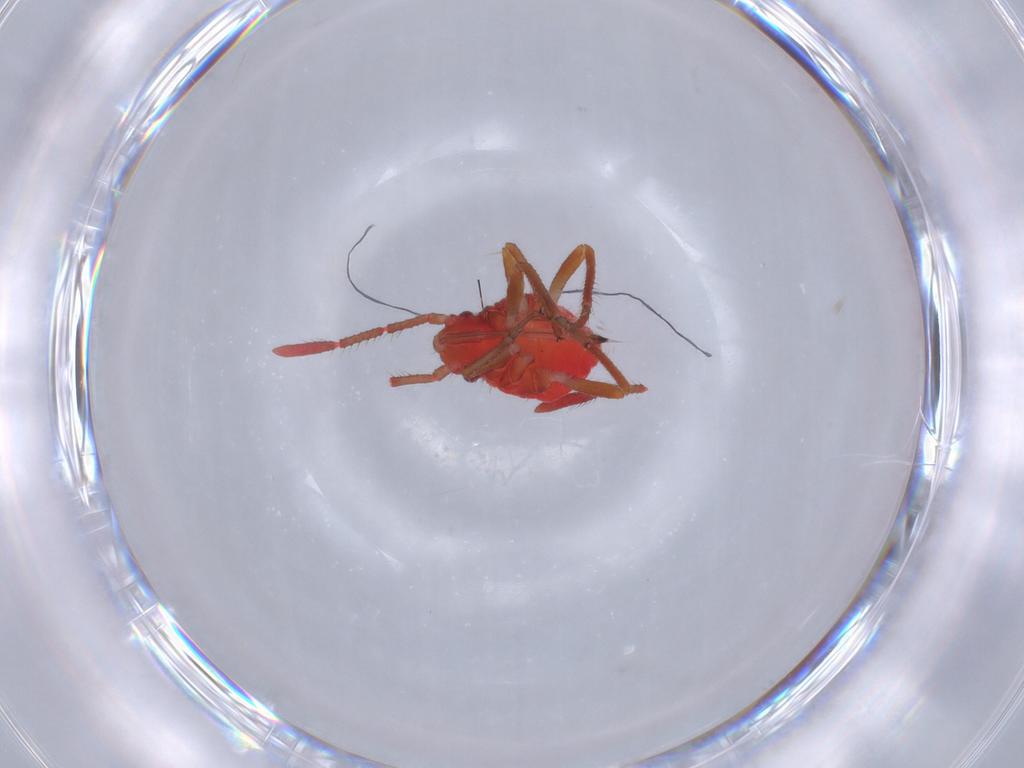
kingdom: Animalia
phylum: Arthropoda
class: Insecta
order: Hemiptera
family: Rhopalidae
